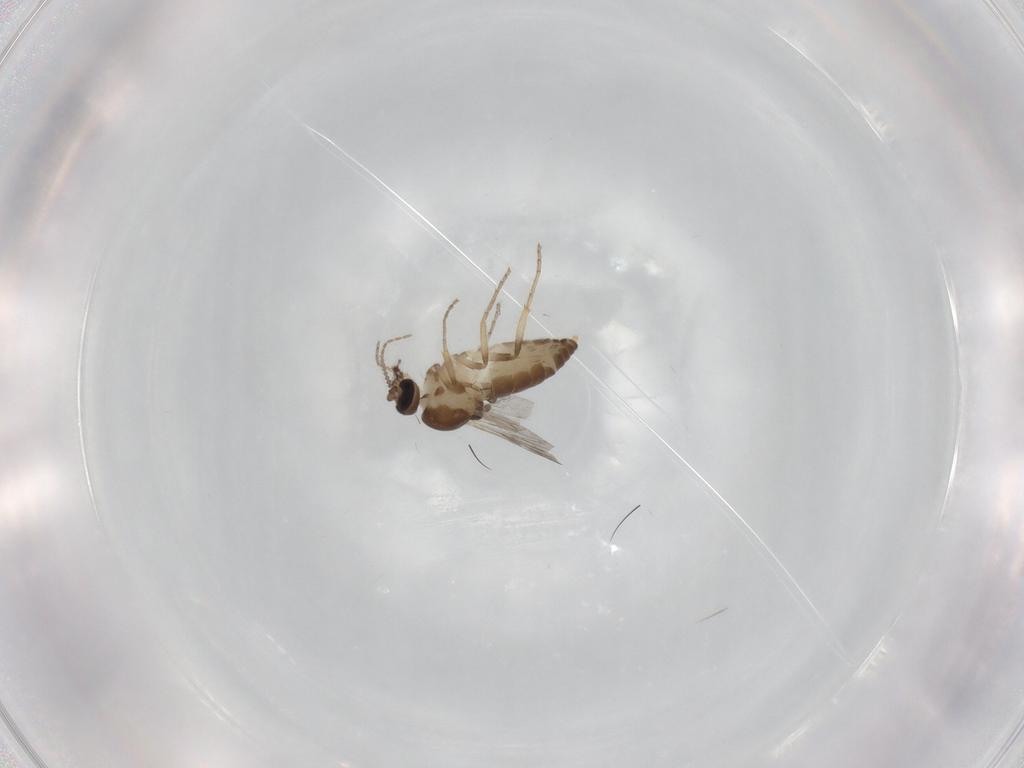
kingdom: Animalia
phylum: Arthropoda
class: Insecta
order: Diptera
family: Ceratopogonidae
